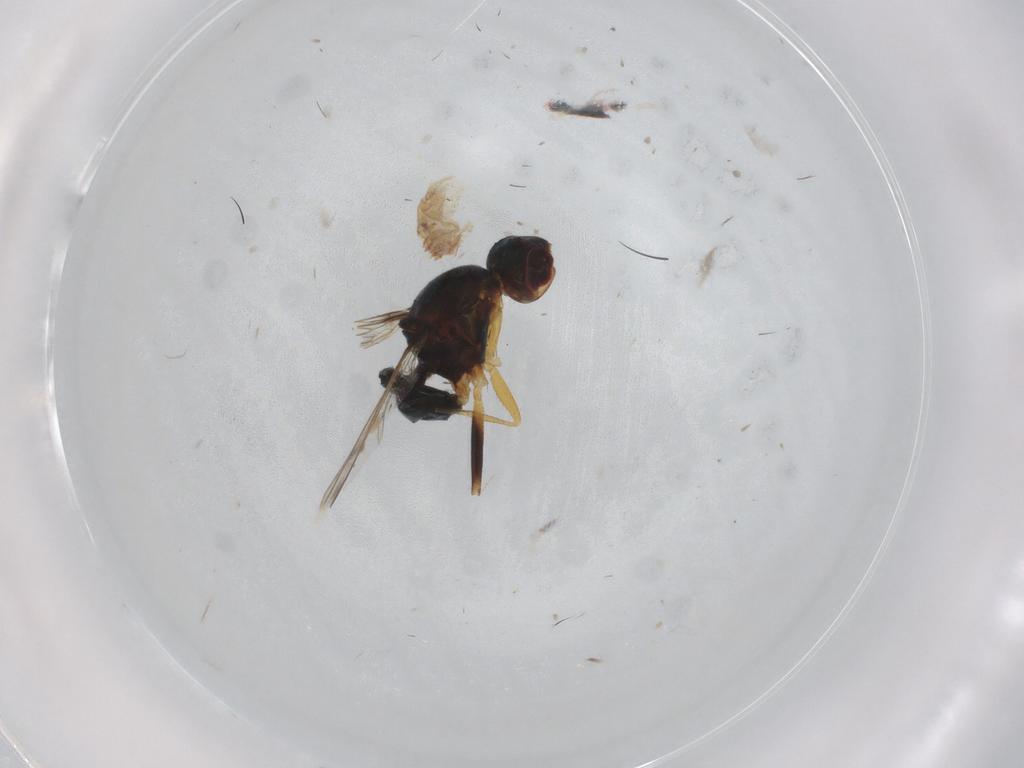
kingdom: Animalia
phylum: Arthropoda
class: Insecta
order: Diptera
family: Sepsidae
